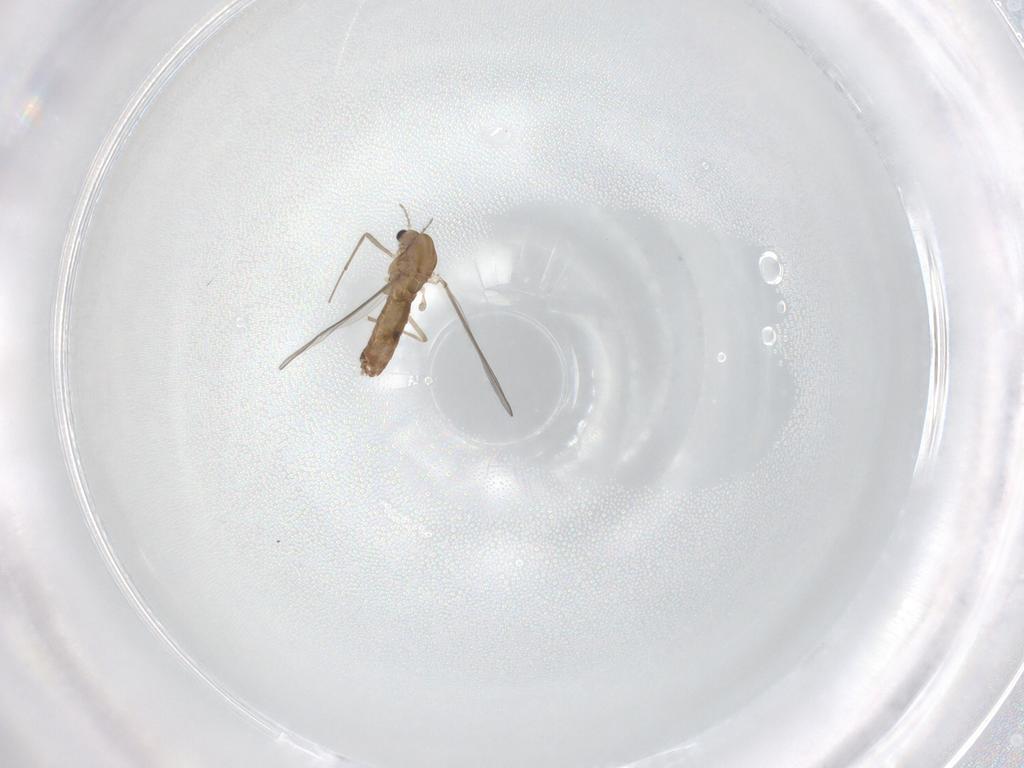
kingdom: Animalia
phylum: Arthropoda
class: Insecta
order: Diptera
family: Chironomidae
